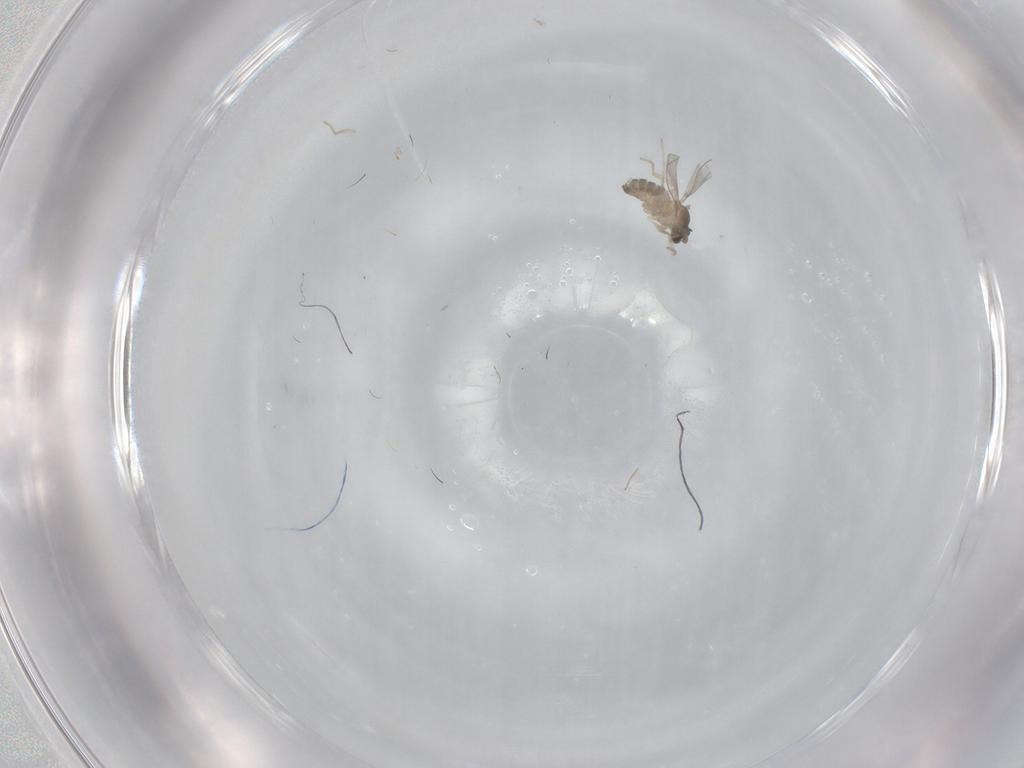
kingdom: Animalia
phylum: Arthropoda
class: Insecta
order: Diptera
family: Cecidomyiidae
